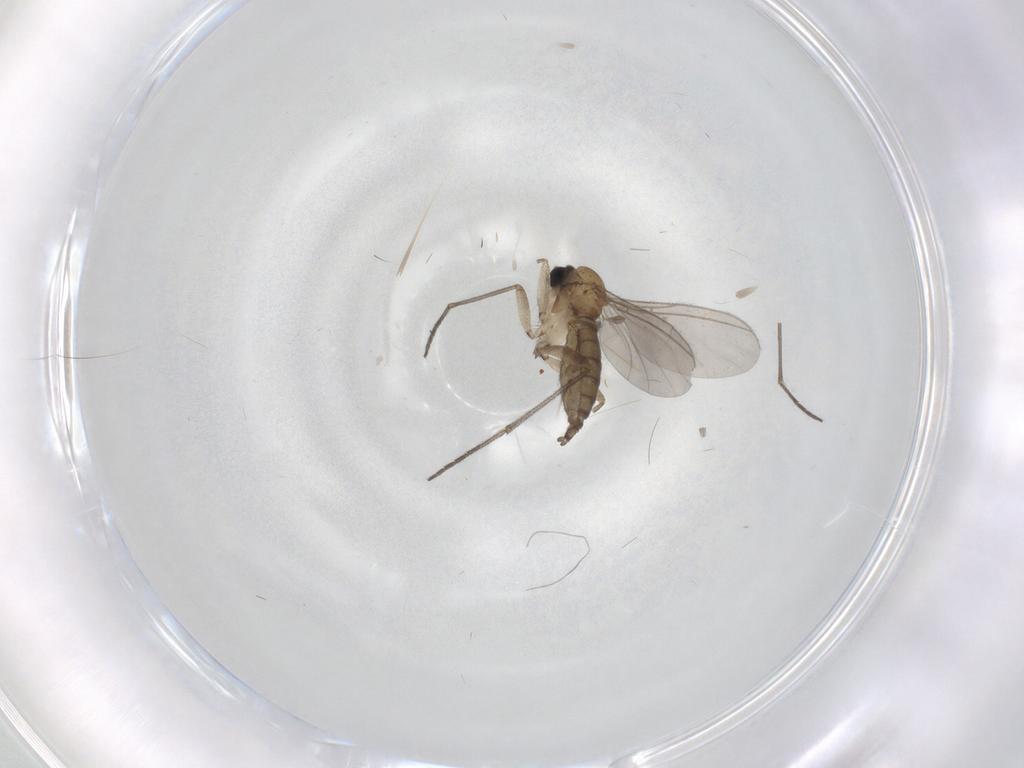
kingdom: Animalia
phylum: Arthropoda
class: Insecta
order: Diptera
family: Sciaridae
